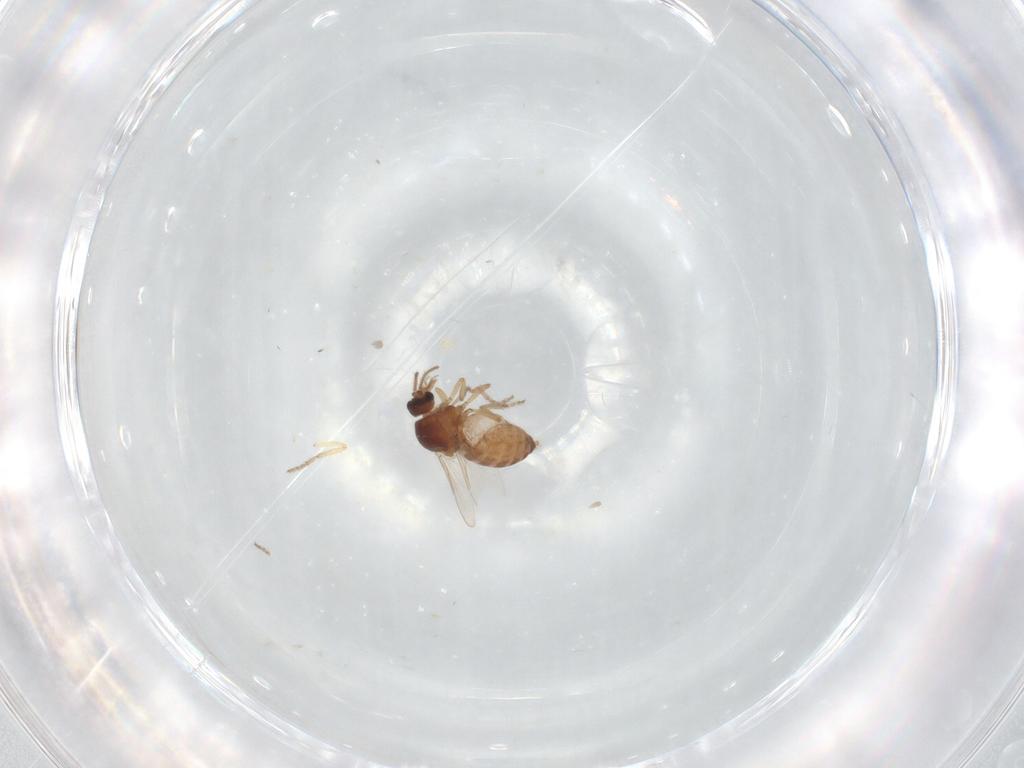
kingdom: Animalia
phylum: Arthropoda
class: Insecta
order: Diptera
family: Ceratopogonidae
